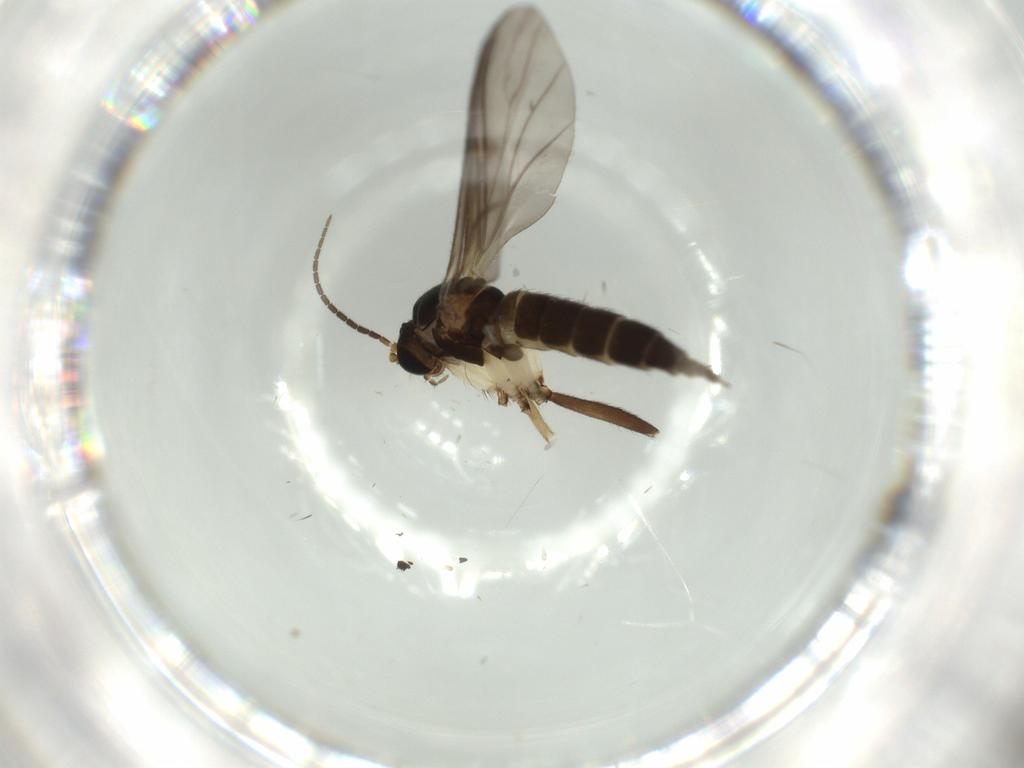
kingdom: Animalia
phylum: Arthropoda
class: Insecta
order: Diptera
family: Sciaridae
